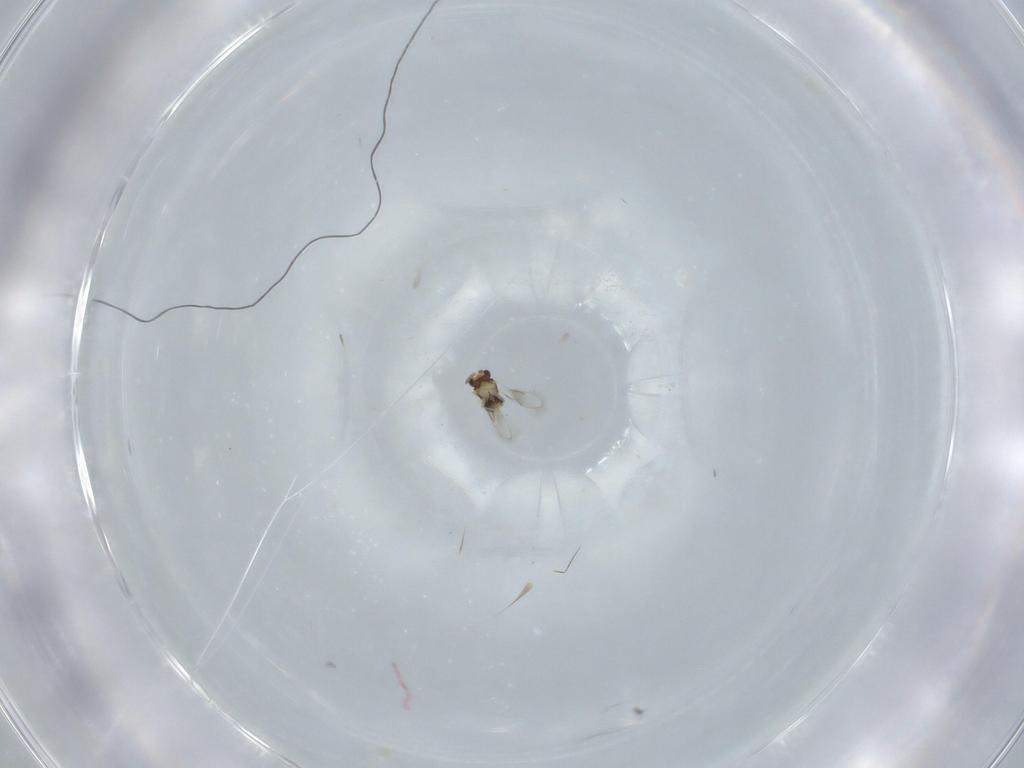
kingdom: Animalia
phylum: Arthropoda
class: Insecta
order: Hymenoptera
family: Aphelinidae
